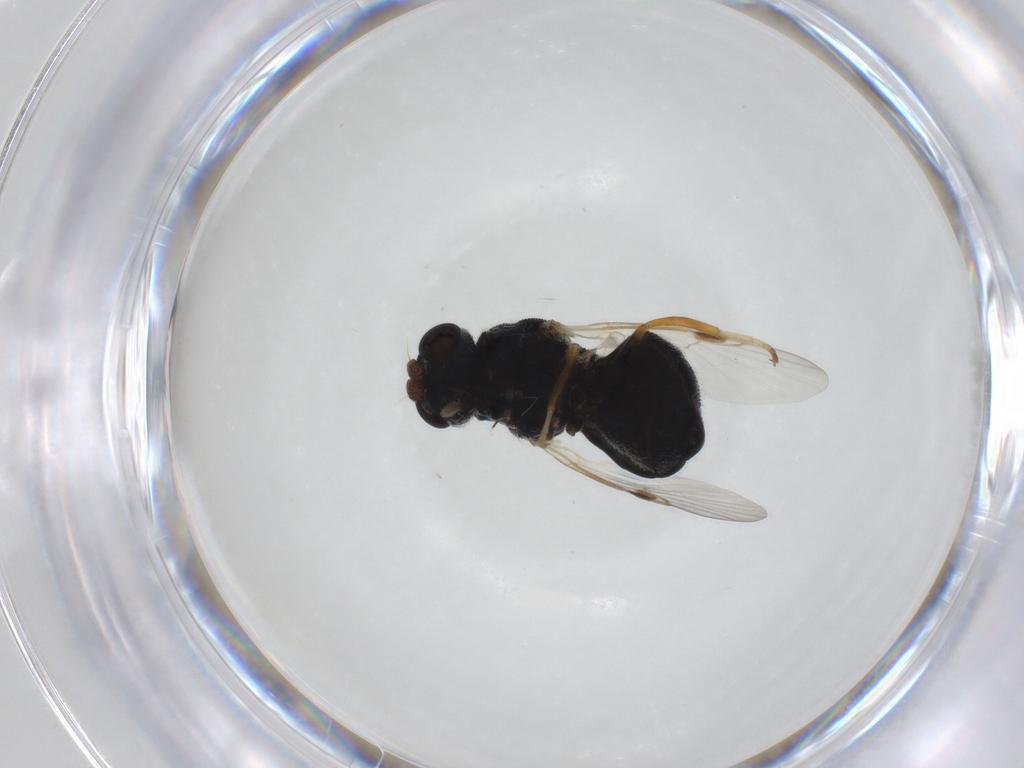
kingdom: Animalia
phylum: Arthropoda
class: Insecta
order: Diptera
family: Stratiomyidae
